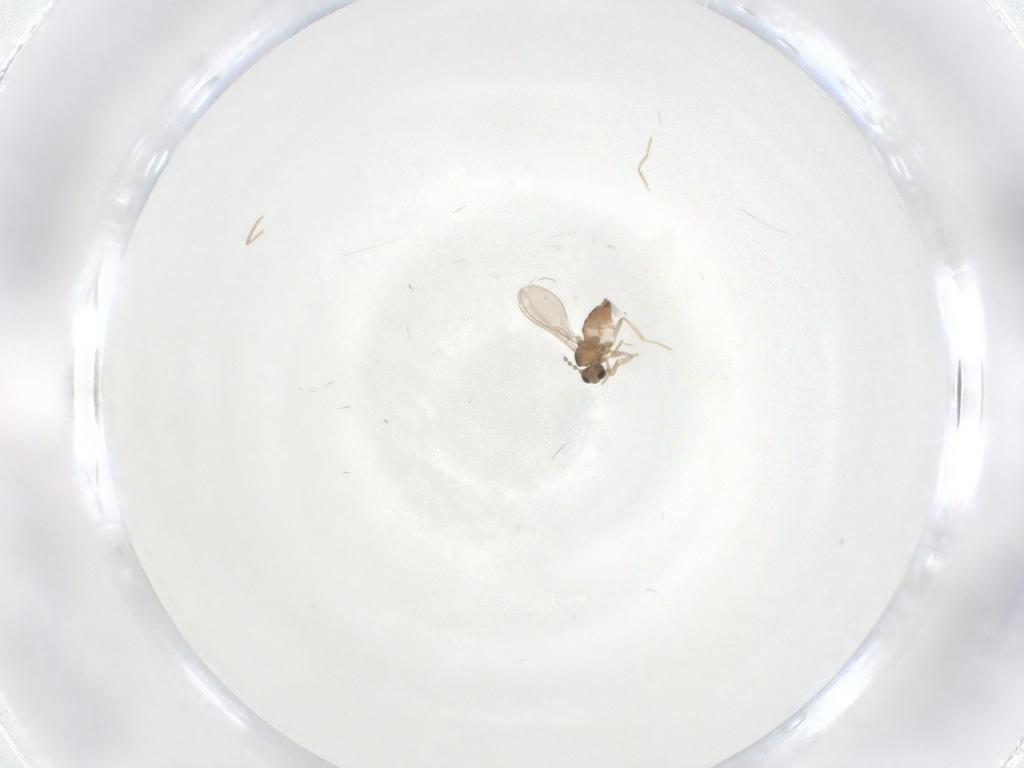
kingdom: Animalia
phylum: Arthropoda
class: Insecta
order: Diptera
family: Cecidomyiidae
